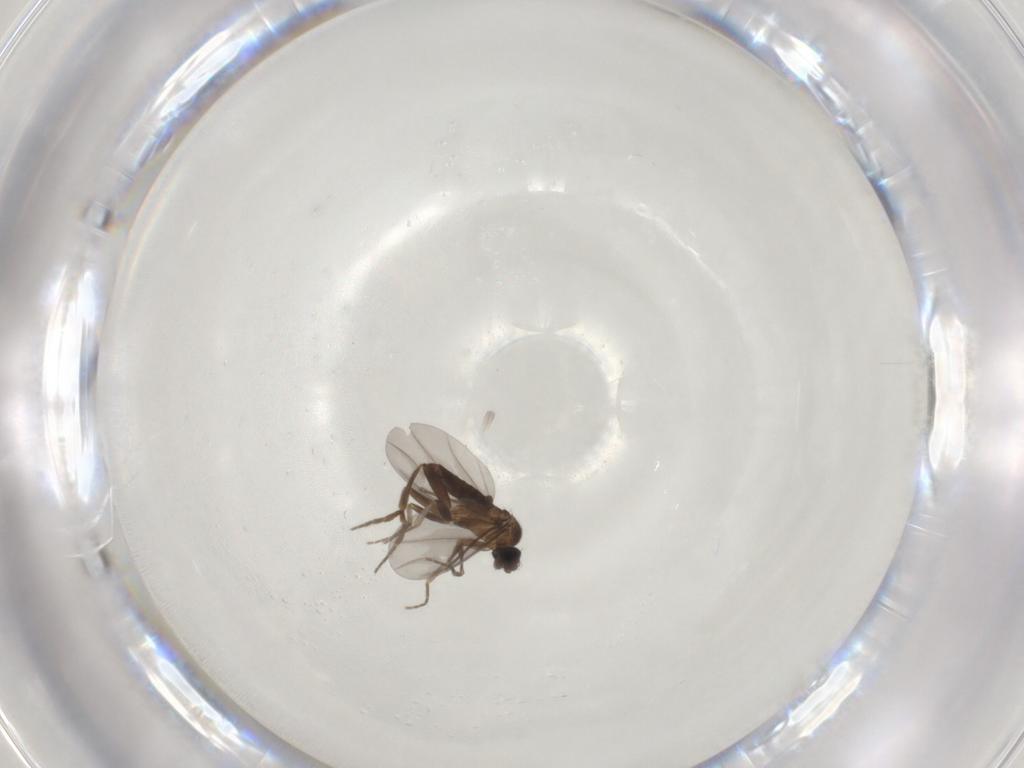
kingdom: Animalia
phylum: Arthropoda
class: Insecta
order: Diptera
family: Phoridae
